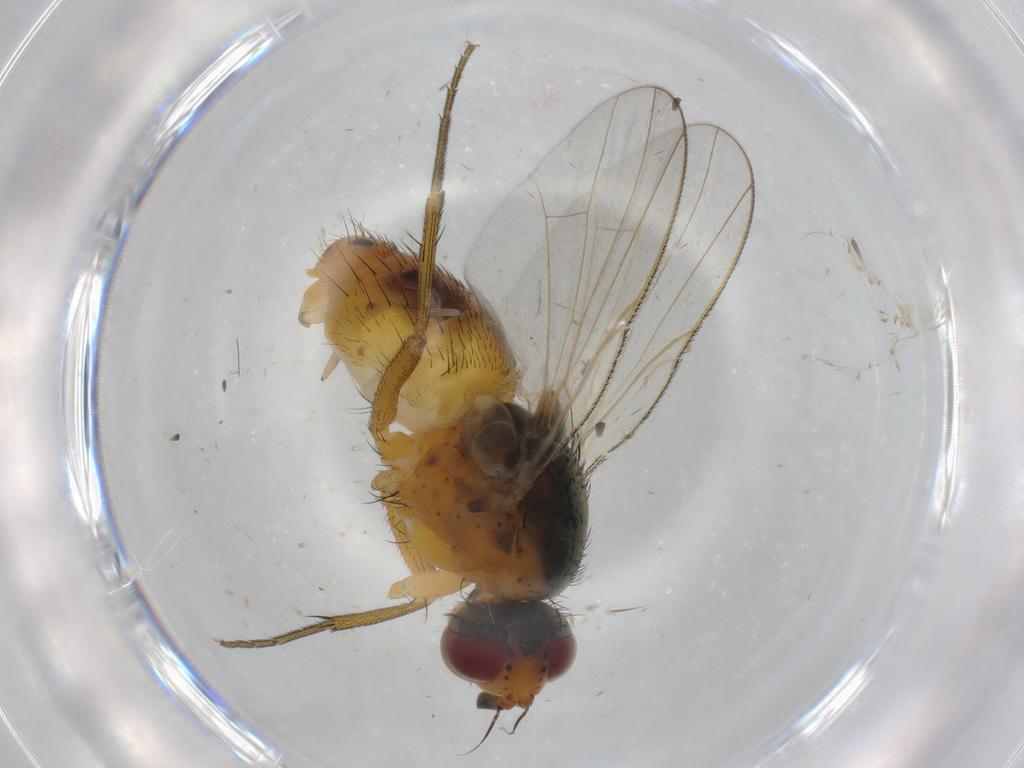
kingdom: Animalia
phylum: Arthropoda
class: Insecta
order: Diptera
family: Muscidae
